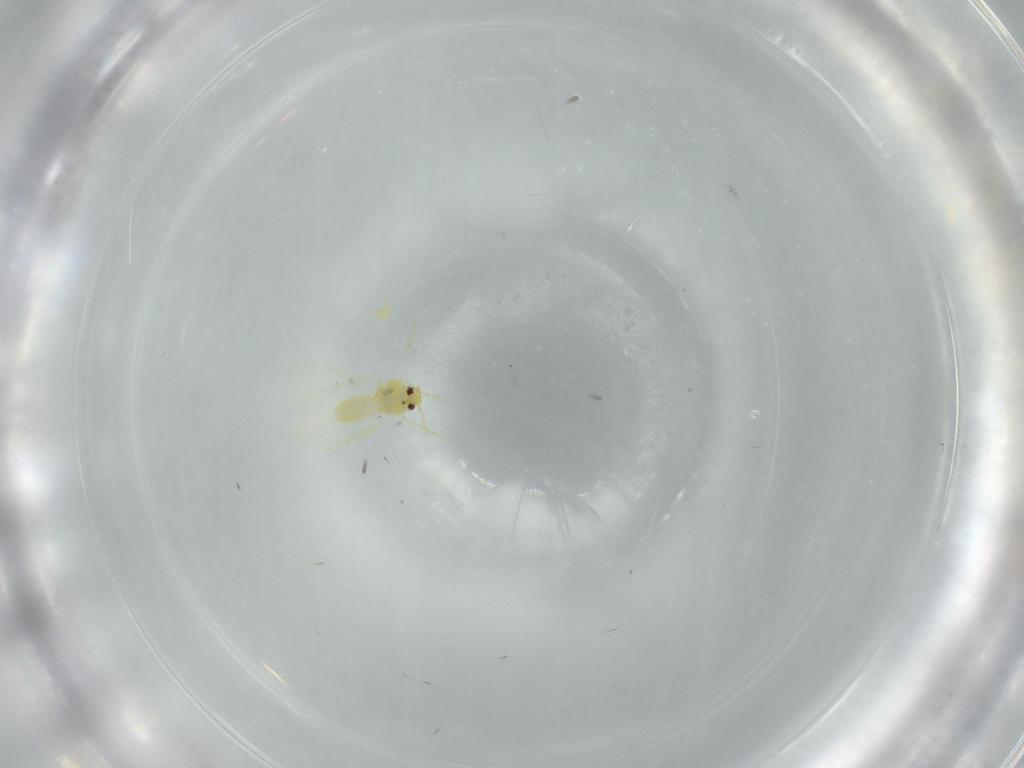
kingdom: Animalia
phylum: Arthropoda
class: Insecta
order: Hemiptera
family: Aleyrodidae
